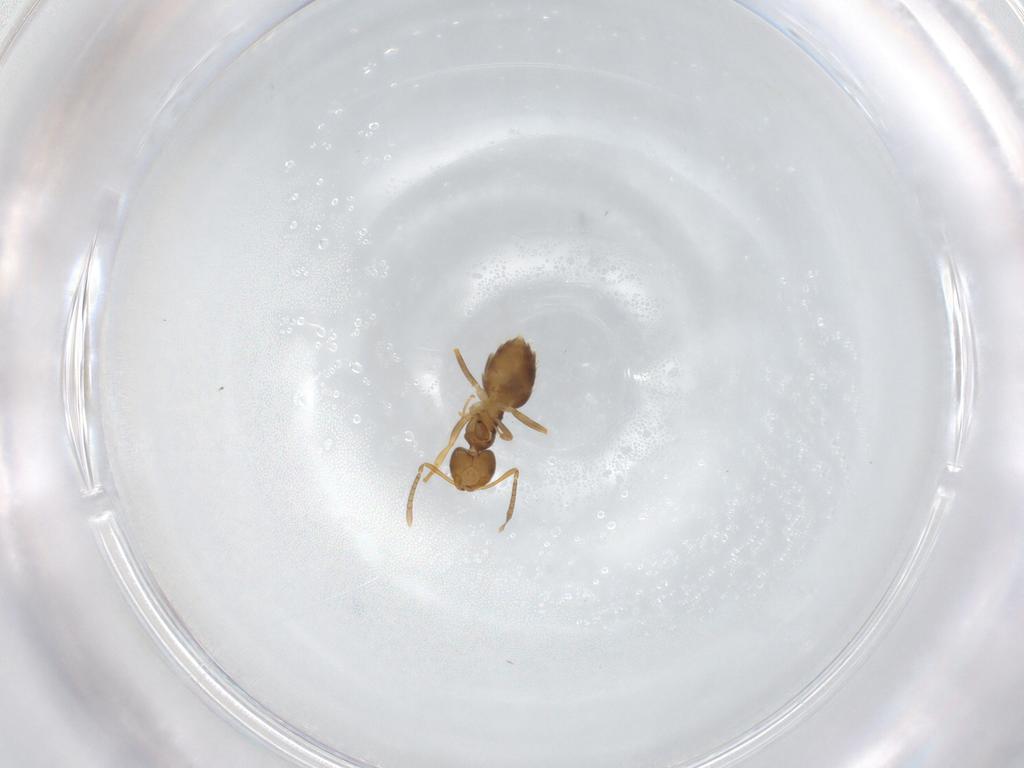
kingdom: Animalia
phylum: Arthropoda
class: Insecta
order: Hymenoptera
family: Formicidae
